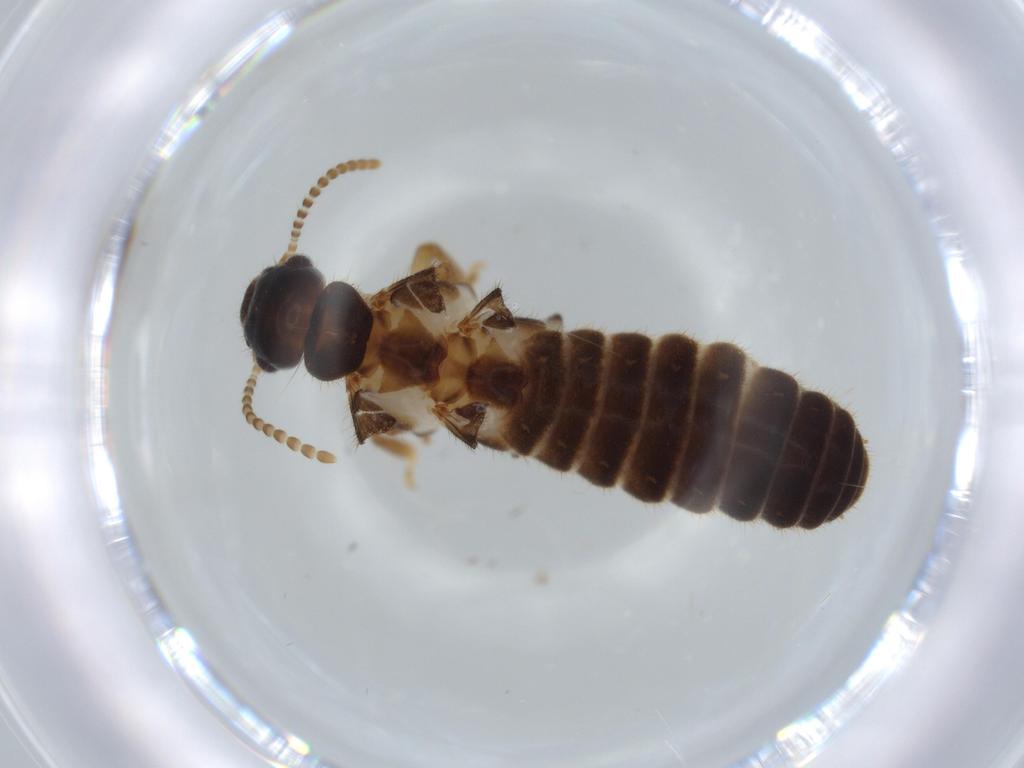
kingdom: Animalia
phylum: Arthropoda
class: Insecta
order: Blattodea
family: Termitidae
